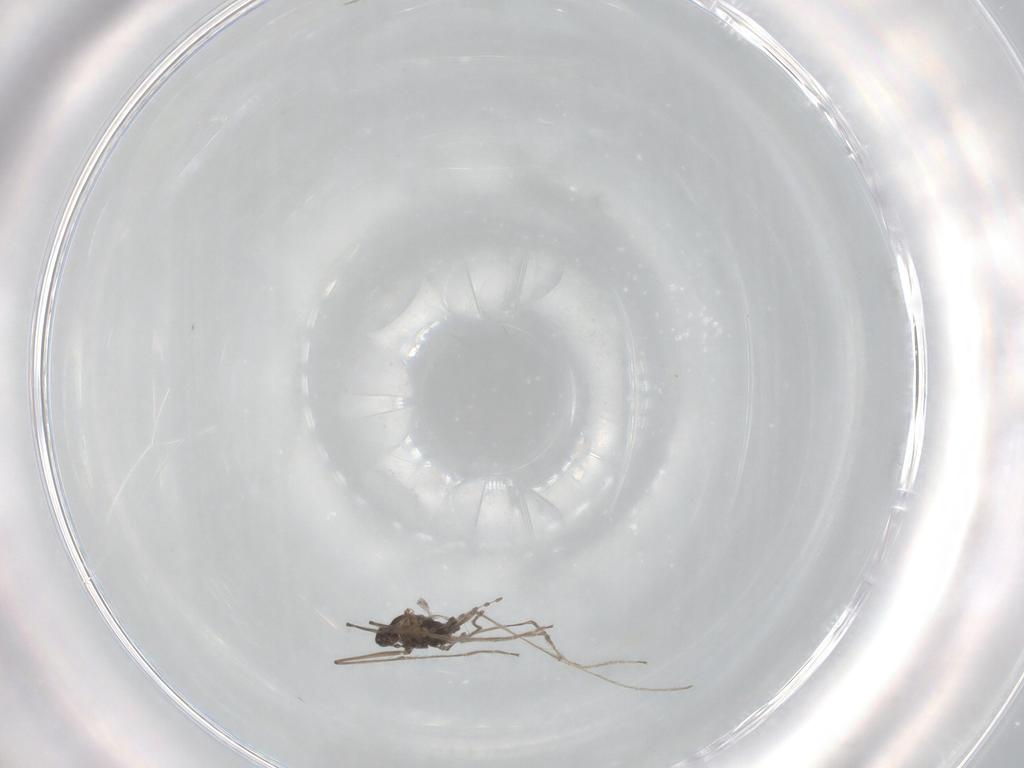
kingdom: Animalia
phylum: Arthropoda
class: Insecta
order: Diptera
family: Cecidomyiidae
